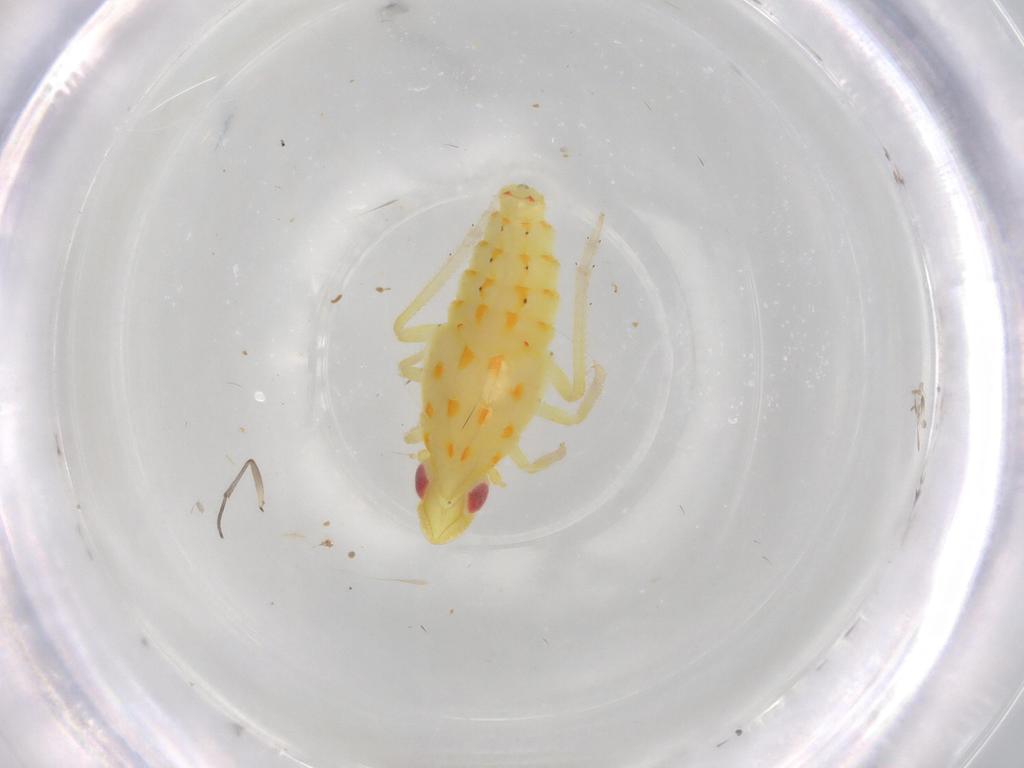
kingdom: Animalia
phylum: Arthropoda
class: Insecta
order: Hemiptera
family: Tropiduchidae
